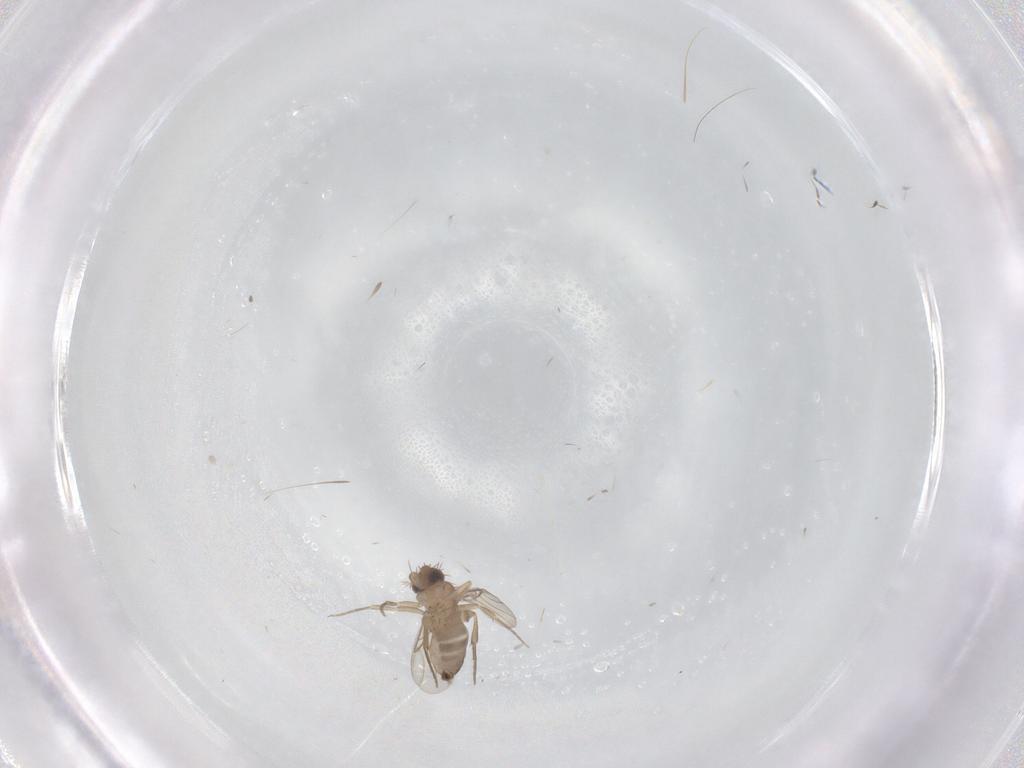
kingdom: Animalia
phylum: Arthropoda
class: Insecta
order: Diptera
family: Phoridae
